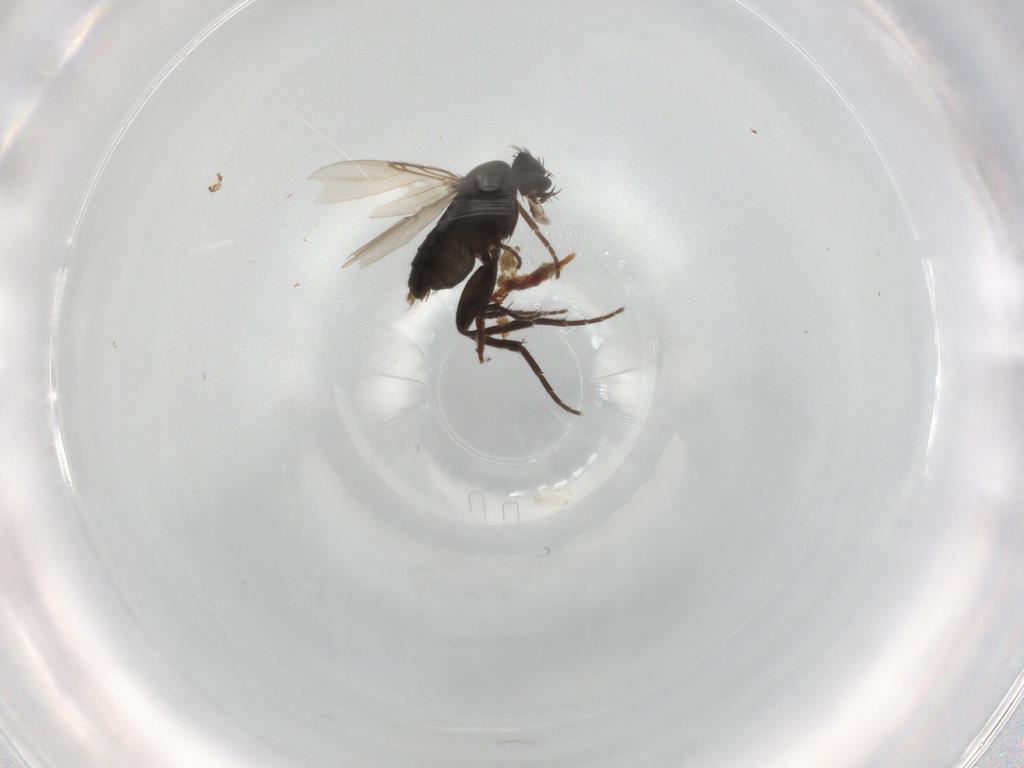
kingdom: Animalia
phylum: Arthropoda
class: Insecta
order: Diptera
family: Phoridae
